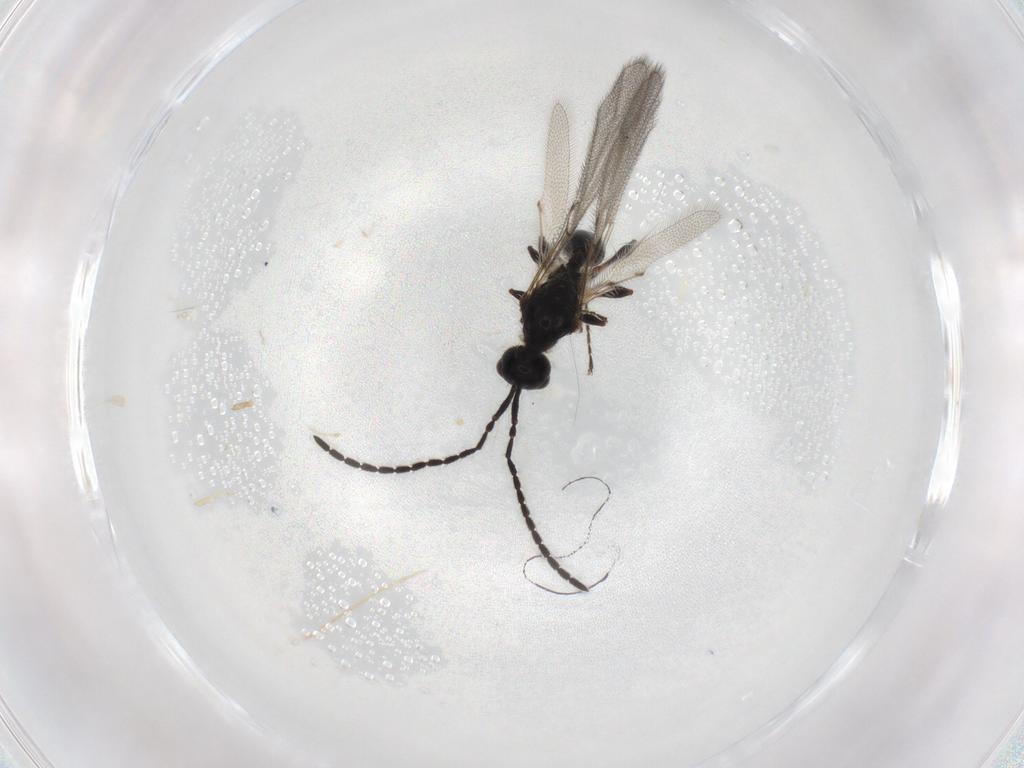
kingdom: Animalia
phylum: Arthropoda
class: Insecta
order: Hymenoptera
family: Diapriidae
